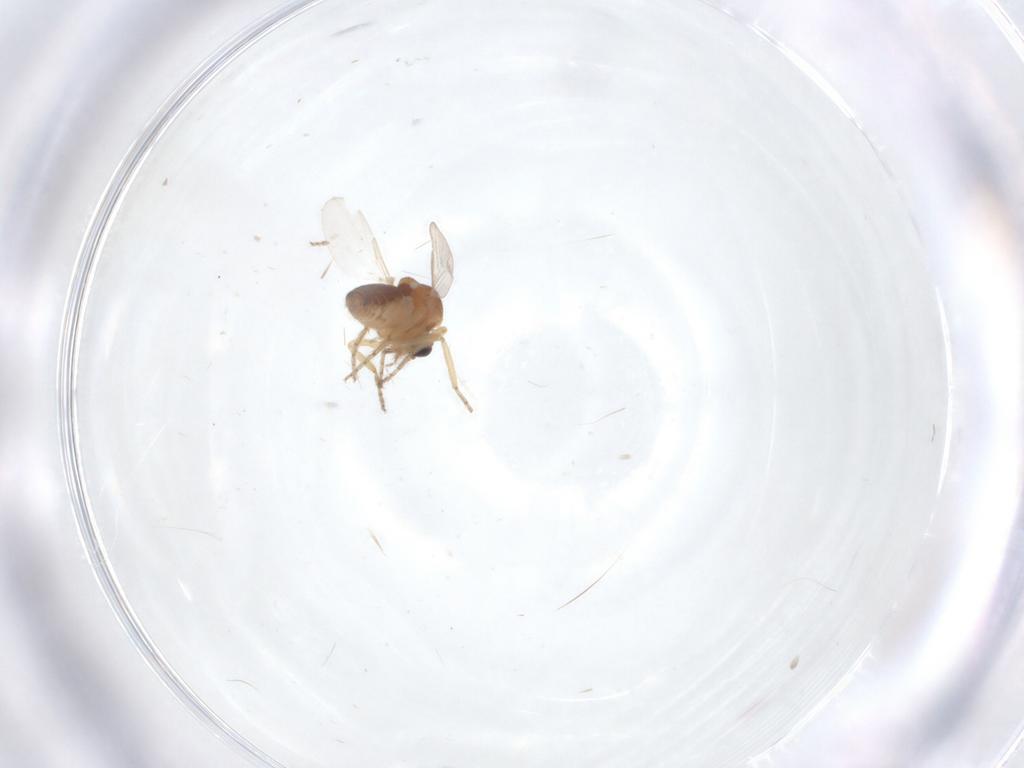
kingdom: Animalia
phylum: Arthropoda
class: Insecta
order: Diptera
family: Ceratopogonidae
